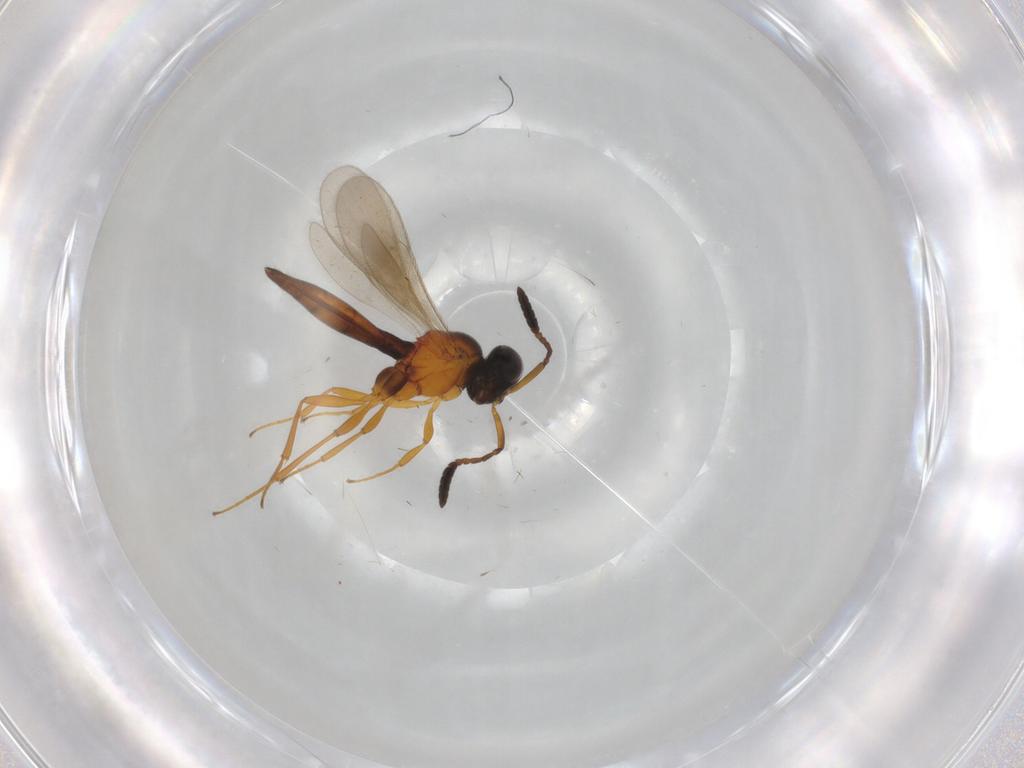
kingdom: Animalia
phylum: Arthropoda
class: Insecta
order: Hymenoptera
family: Scelionidae
